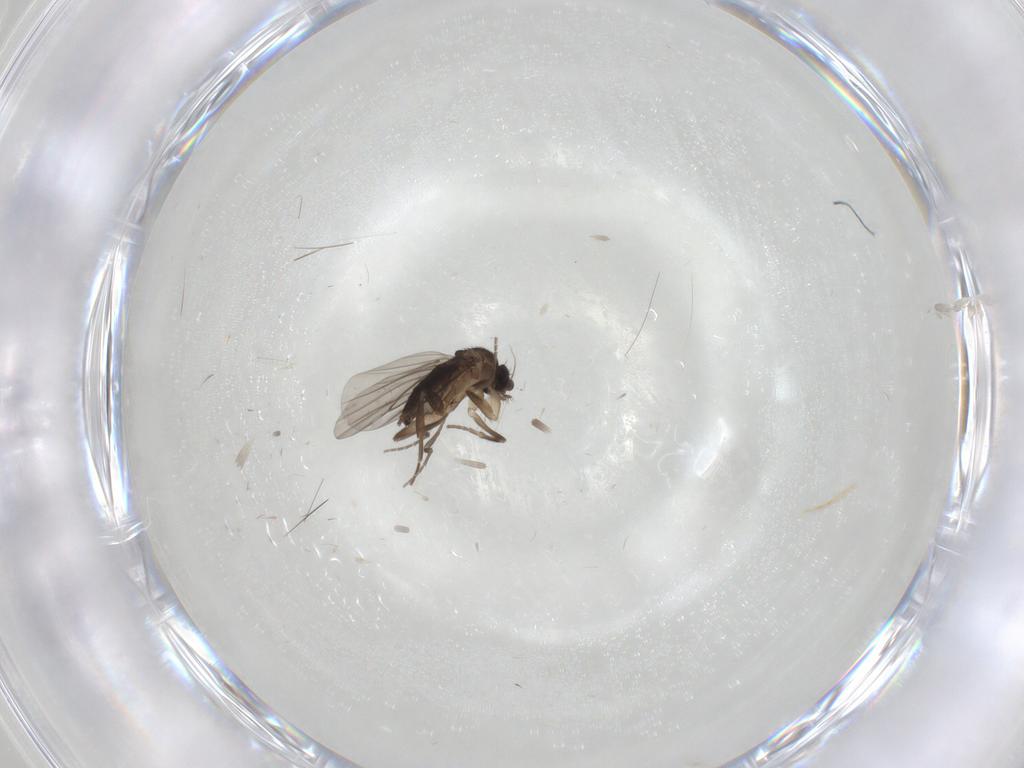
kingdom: Animalia
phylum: Arthropoda
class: Insecta
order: Diptera
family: Phoridae
